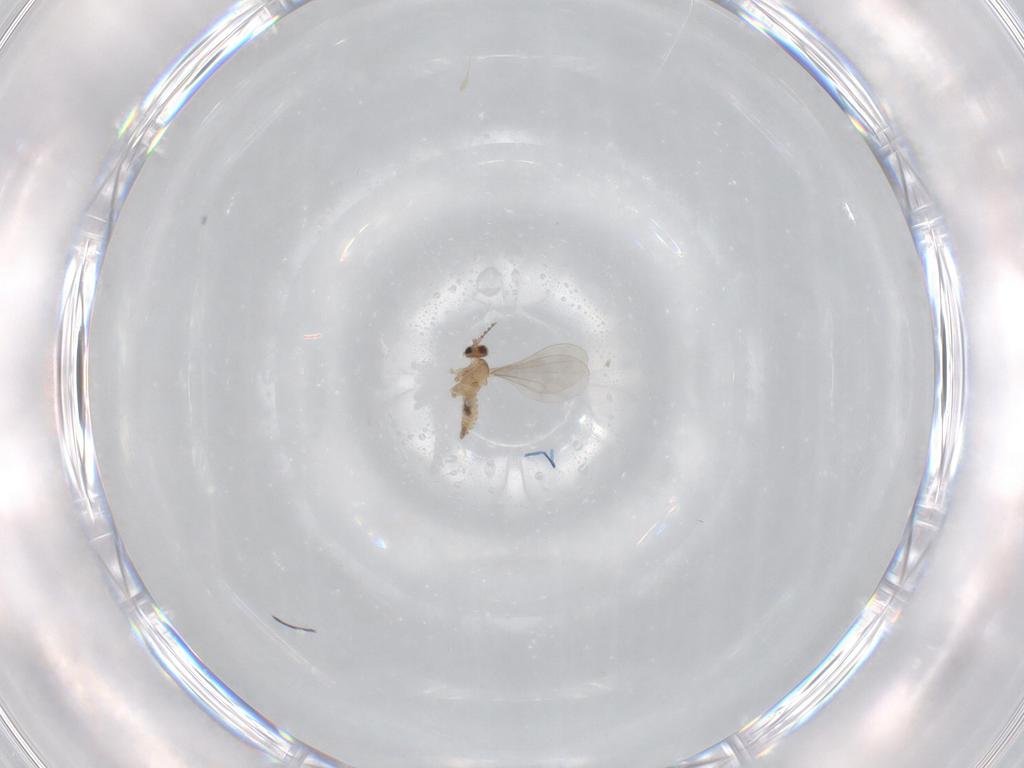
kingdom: Animalia
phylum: Arthropoda
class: Insecta
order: Diptera
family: Cecidomyiidae
